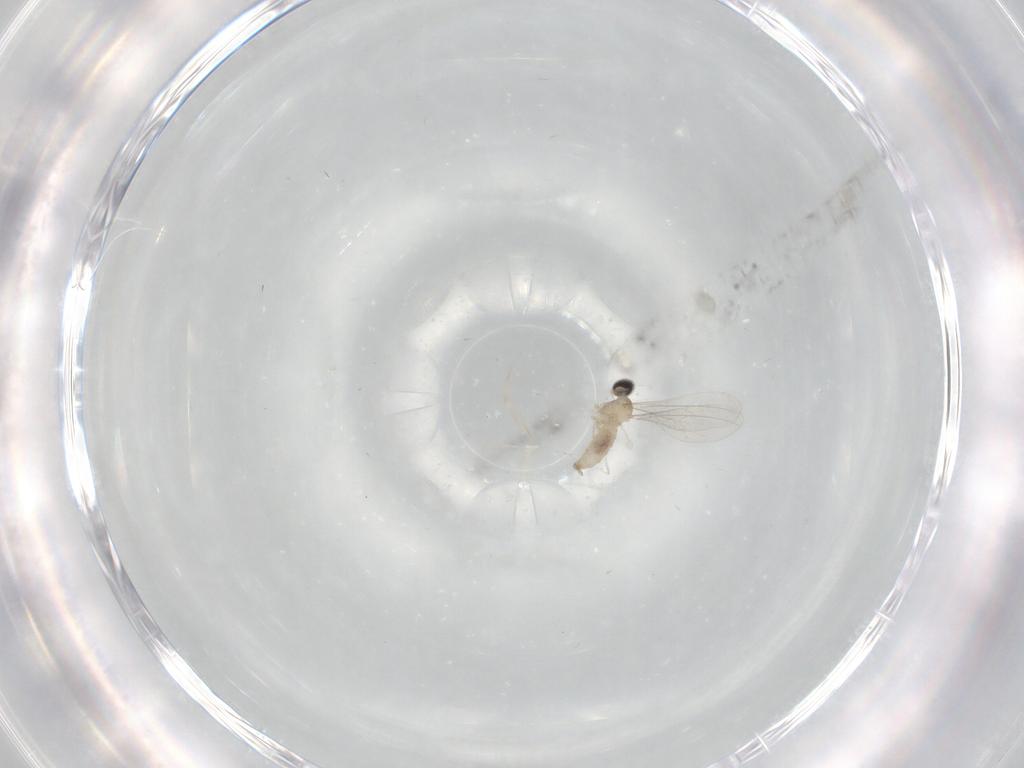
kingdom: Animalia
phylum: Arthropoda
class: Insecta
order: Diptera
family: Cecidomyiidae
